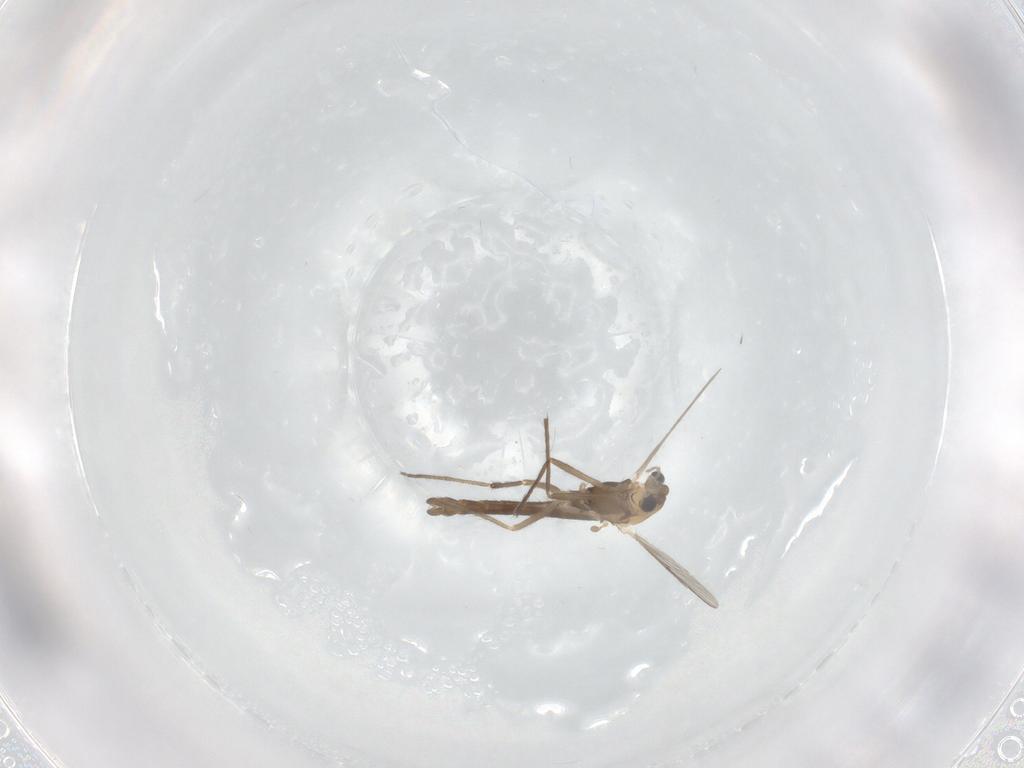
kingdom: Animalia
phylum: Arthropoda
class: Insecta
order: Diptera
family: Chironomidae
